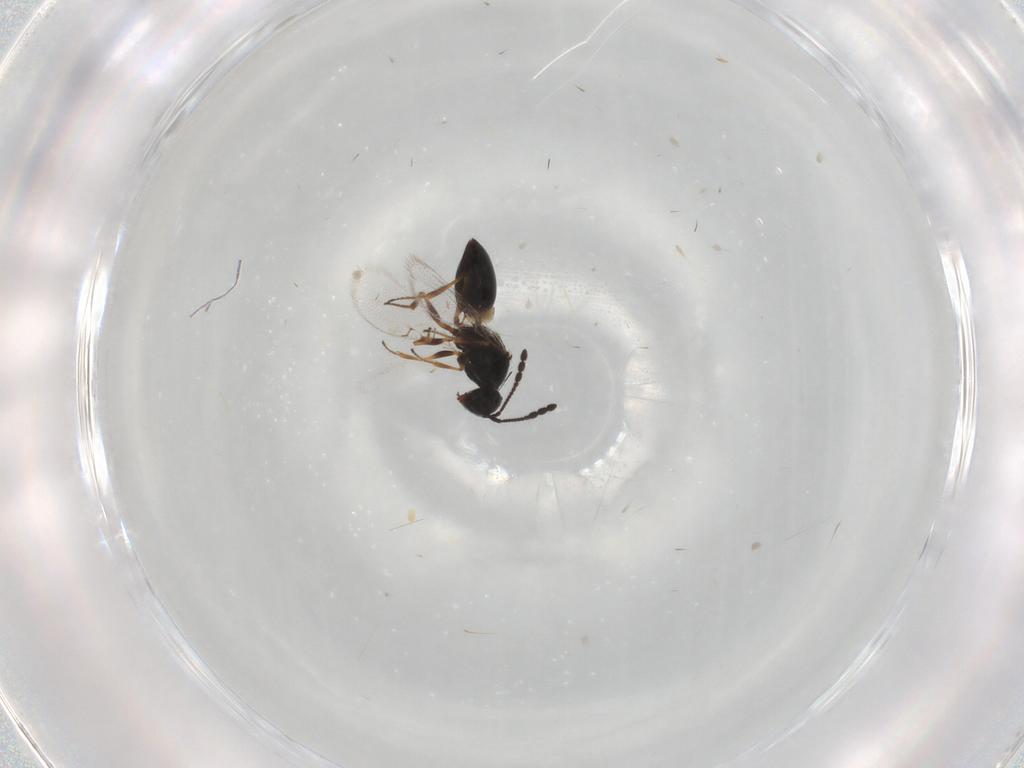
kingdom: Animalia
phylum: Arthropoda
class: Insecta
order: Hymenoptera
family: Figitidae
